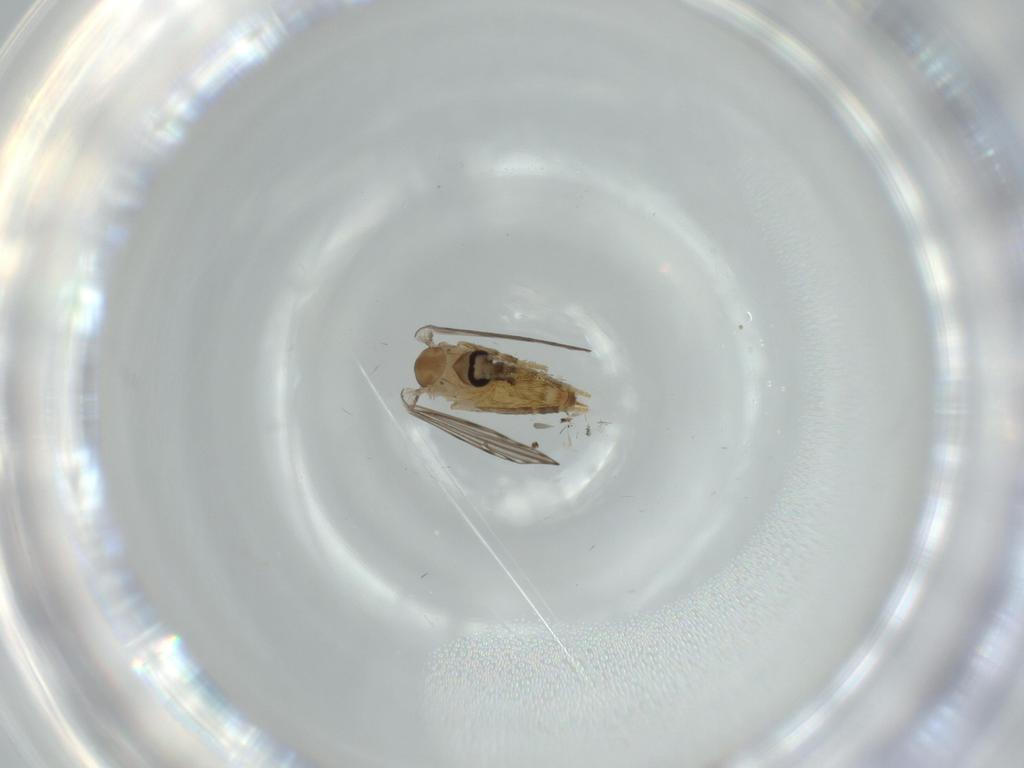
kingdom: Animalia
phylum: Arthropoda
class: Insecta
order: Diptera
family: Psychodidae
